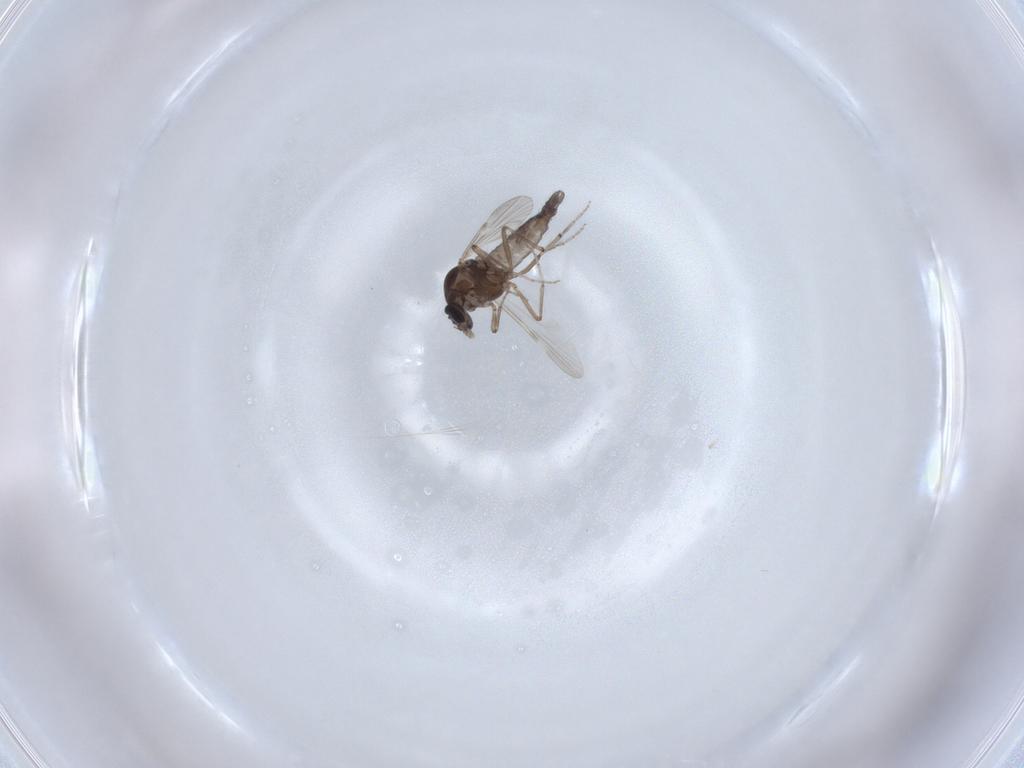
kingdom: Animalia
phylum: Arthropoda
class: Insecta
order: Diptera
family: Ceratopogonidae
